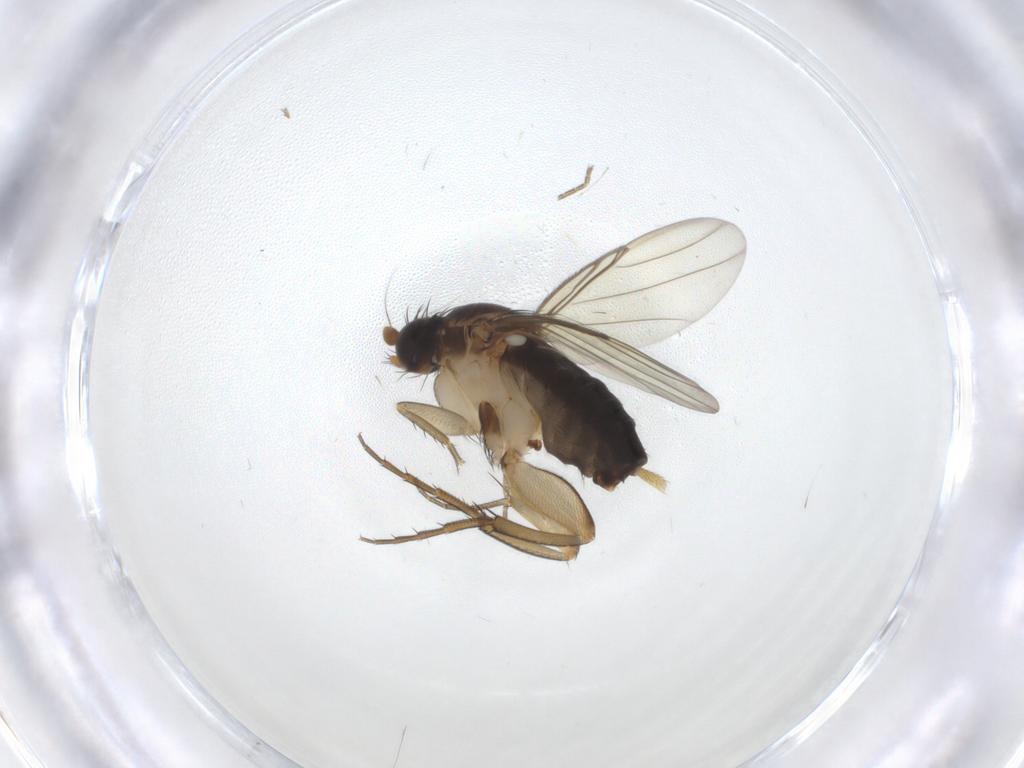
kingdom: Animalia
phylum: Arthropoda
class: Insecta
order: Diptera
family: Cecidomyiidae
